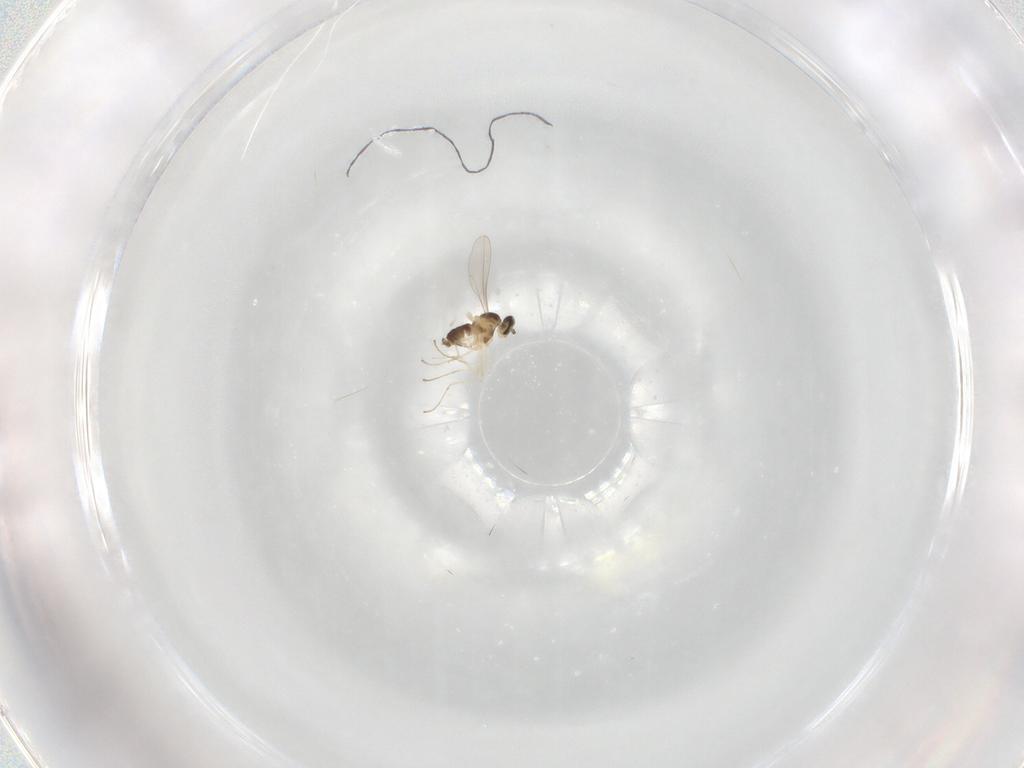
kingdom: Animalia
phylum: Arthropoda
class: Insecta
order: Diptera
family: Cecidomyiidae
